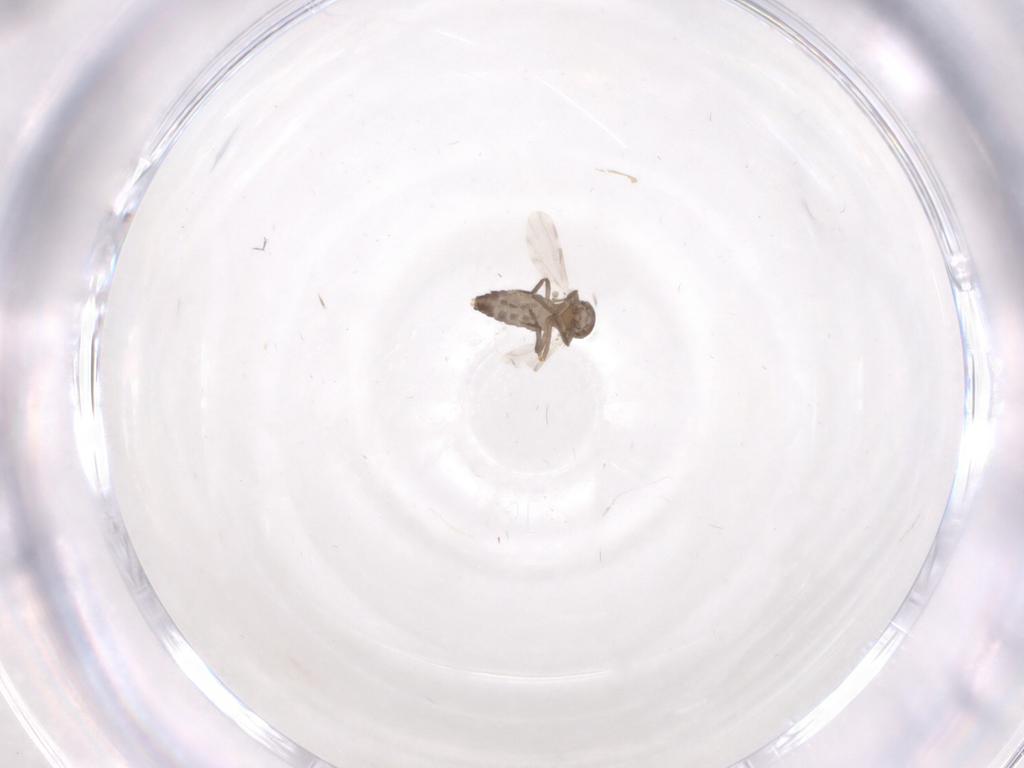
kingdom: Animalia
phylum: Arthropoda
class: Insecta
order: Diptera
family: Ceratopogonidae
